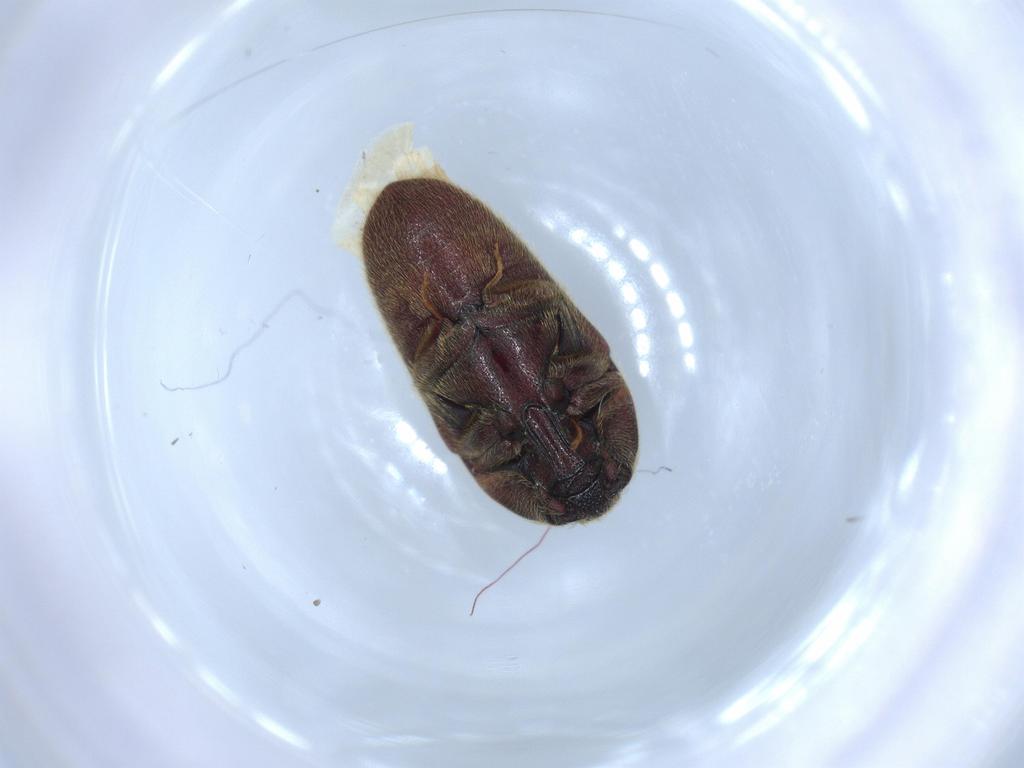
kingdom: Animalia
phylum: Arthropoda
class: Insecta
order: Coleoptera
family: Throscidae
